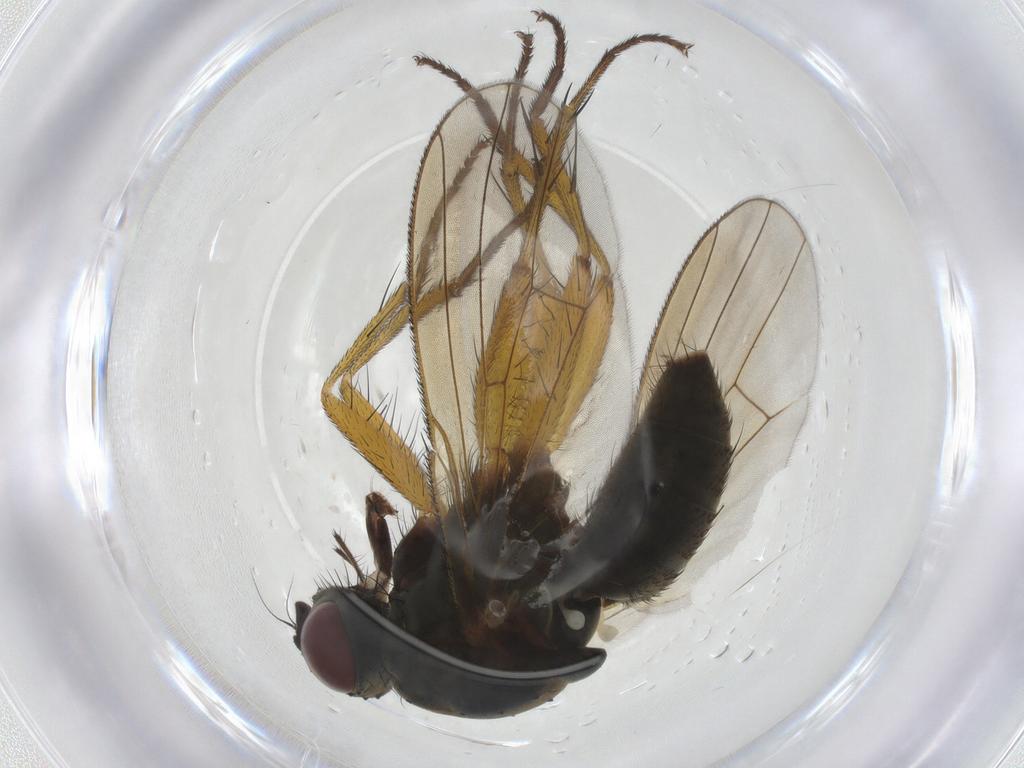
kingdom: Animalia
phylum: Arthropoda
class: Insecta
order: Diptera
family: Muscidae
